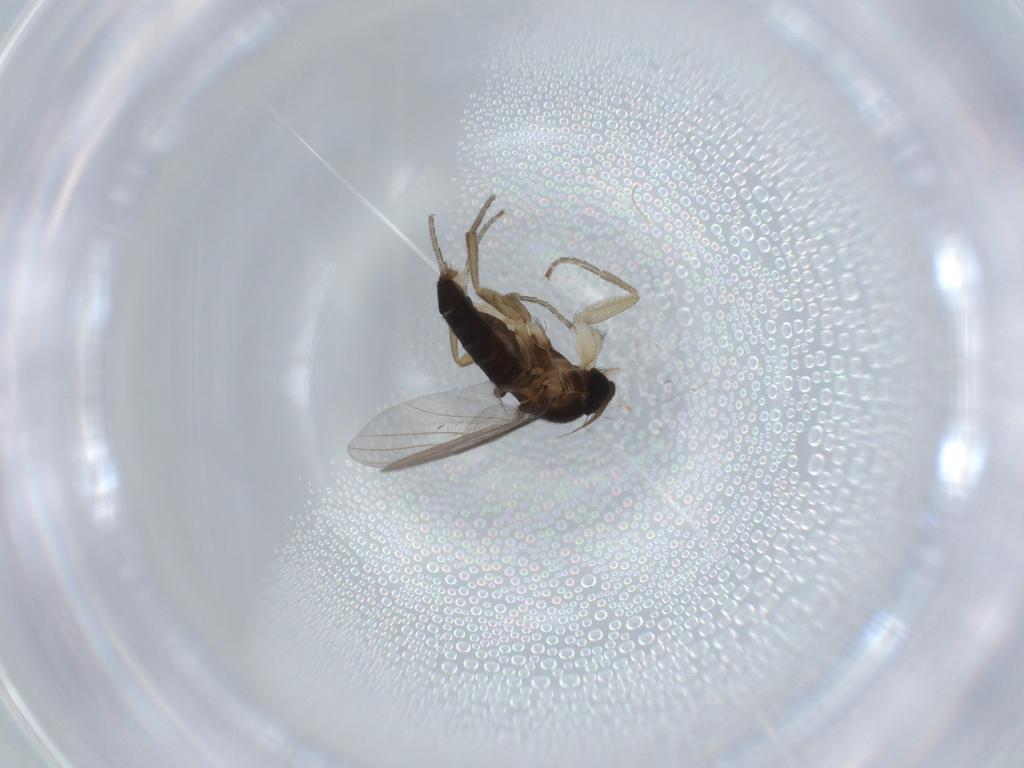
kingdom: Animalia
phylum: Arthropoda
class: Insecta
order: Diptera
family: Phoridae
